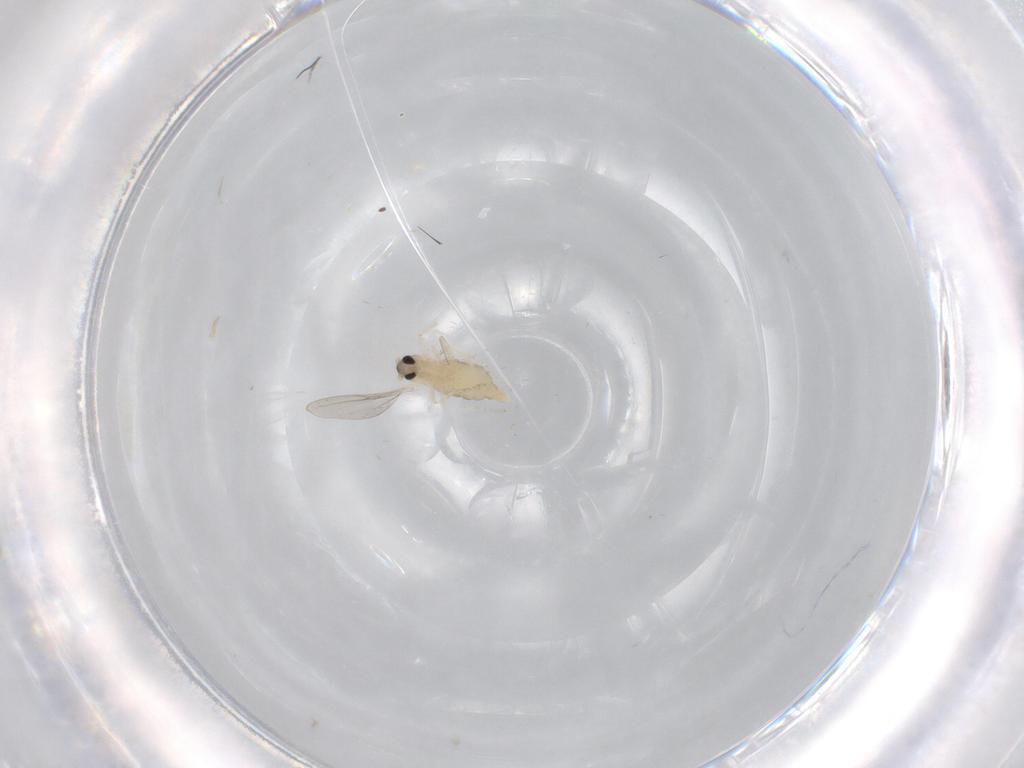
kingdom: Animalia
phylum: Arthropoda
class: Insecta
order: Diptera
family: Cecidomyiidae
